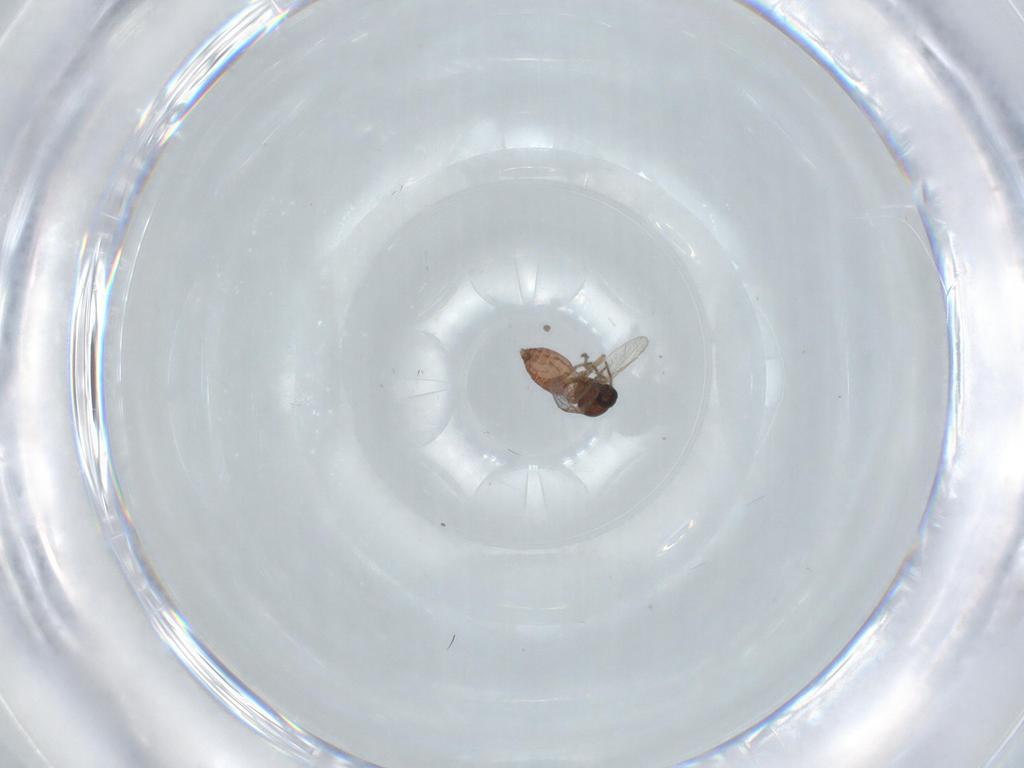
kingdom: Animalia
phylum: Arthropoda
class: Insecta
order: Diptera
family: Ceratopogonidae
